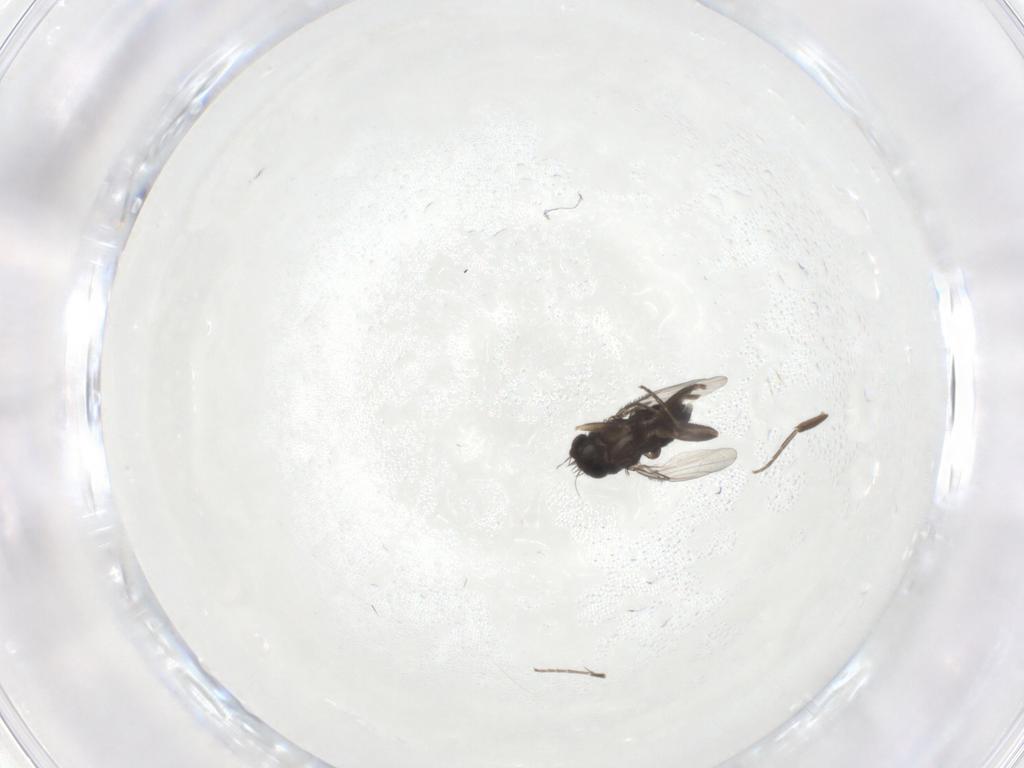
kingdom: Animalia
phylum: Arthropoda
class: Insecta
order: Diptera
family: Phoridae
